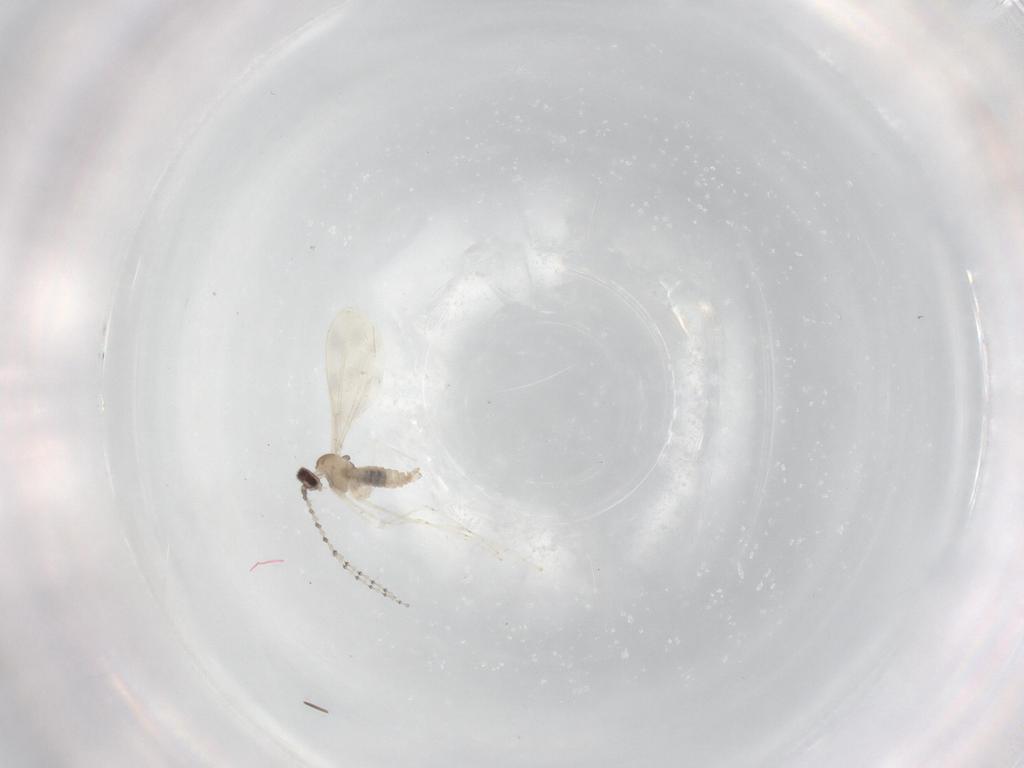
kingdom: Animalia
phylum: Arthropoda
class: Insecta
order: Diptera
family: Cecidomyiidae
